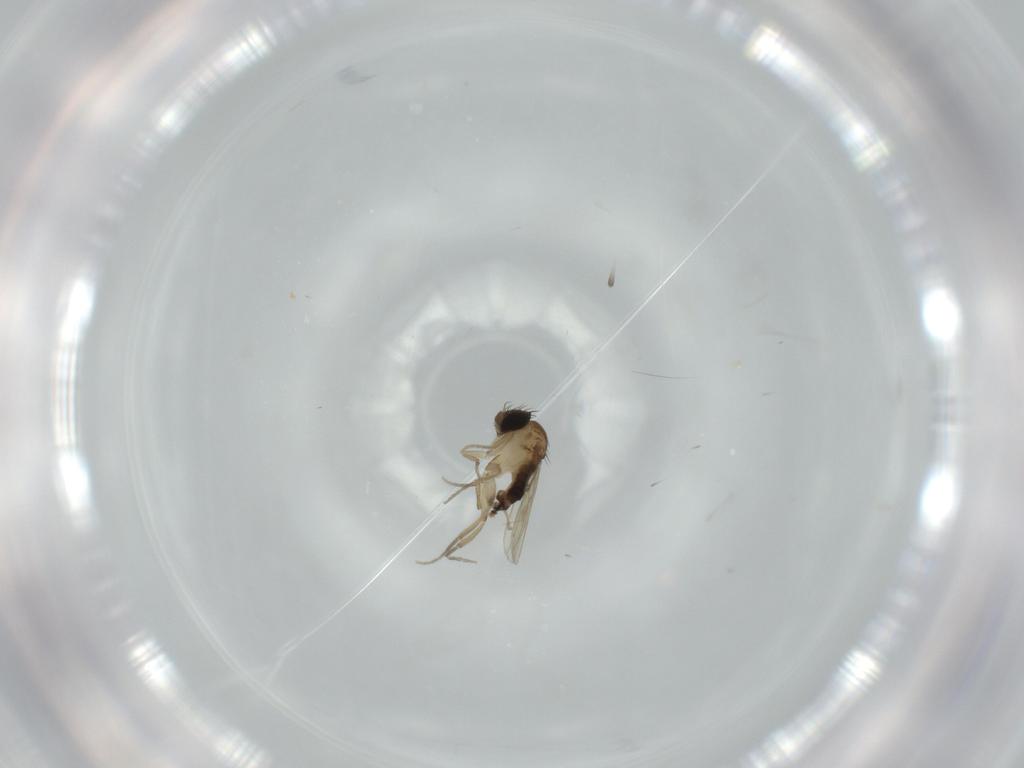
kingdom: Animalia
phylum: Arthropoda
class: Insecta
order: Diptera
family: Phoridae
